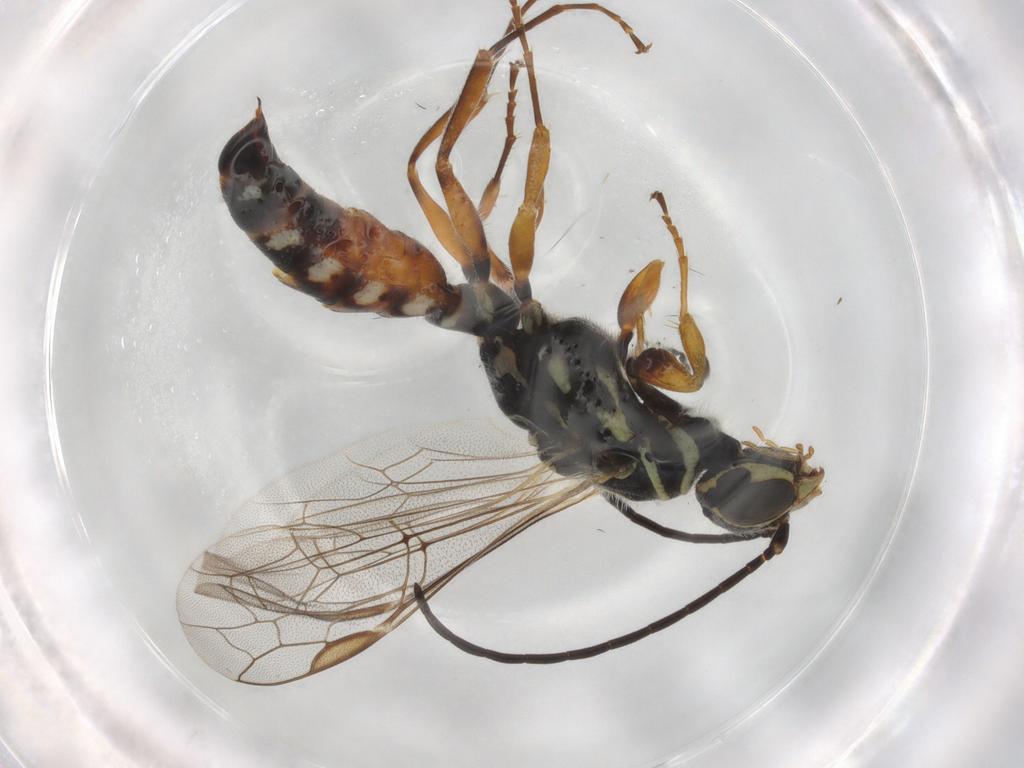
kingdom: Animalia
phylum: Arthropoda
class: Insecta
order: Hymenoptera
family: Thynnidae
